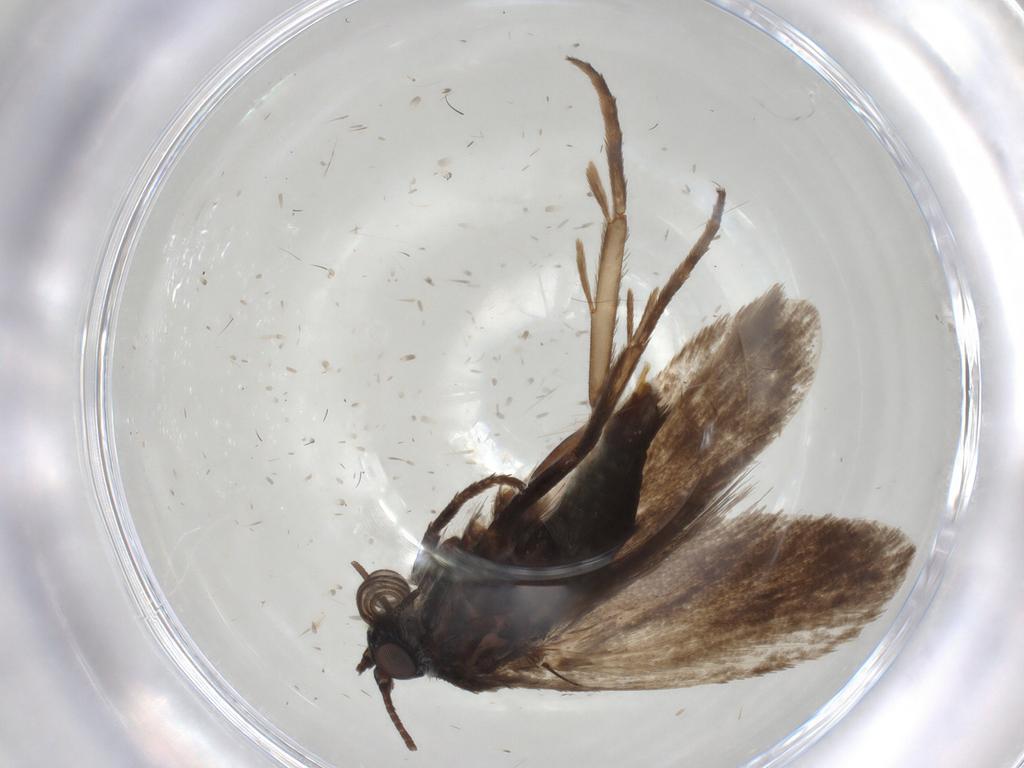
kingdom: Animalia
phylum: Arthropoda
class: Insecta
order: Lepidoptera
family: Adelidae
